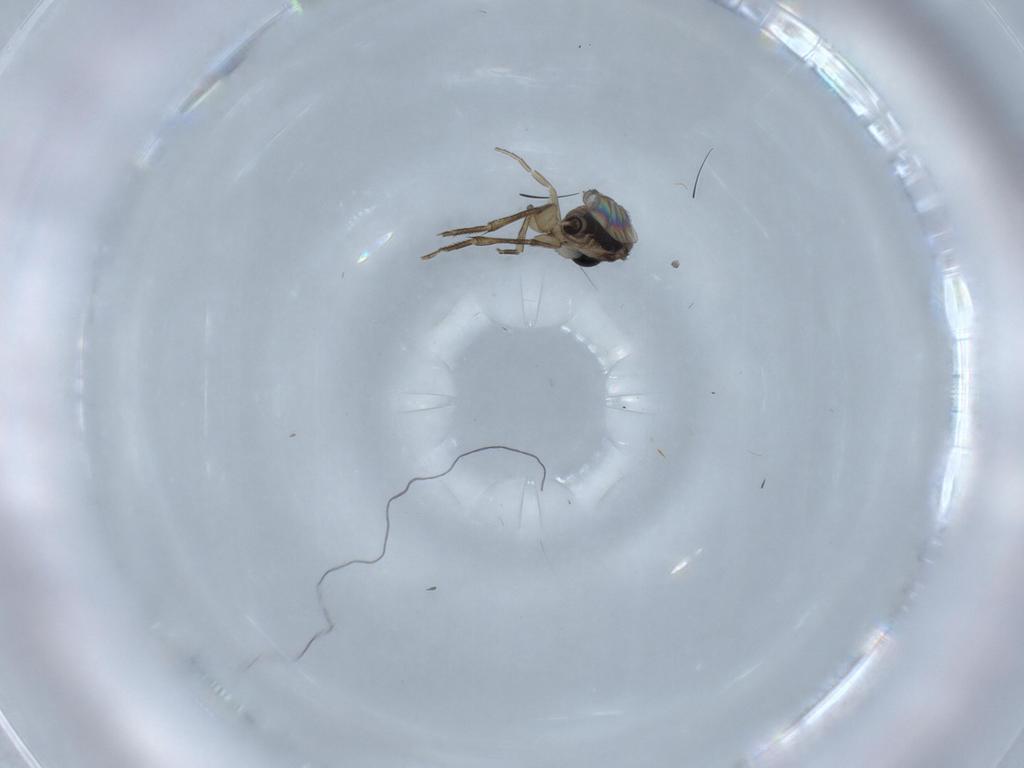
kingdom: Animalia
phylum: Arthropoda
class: Insecta
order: Diptera
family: Phoridae
